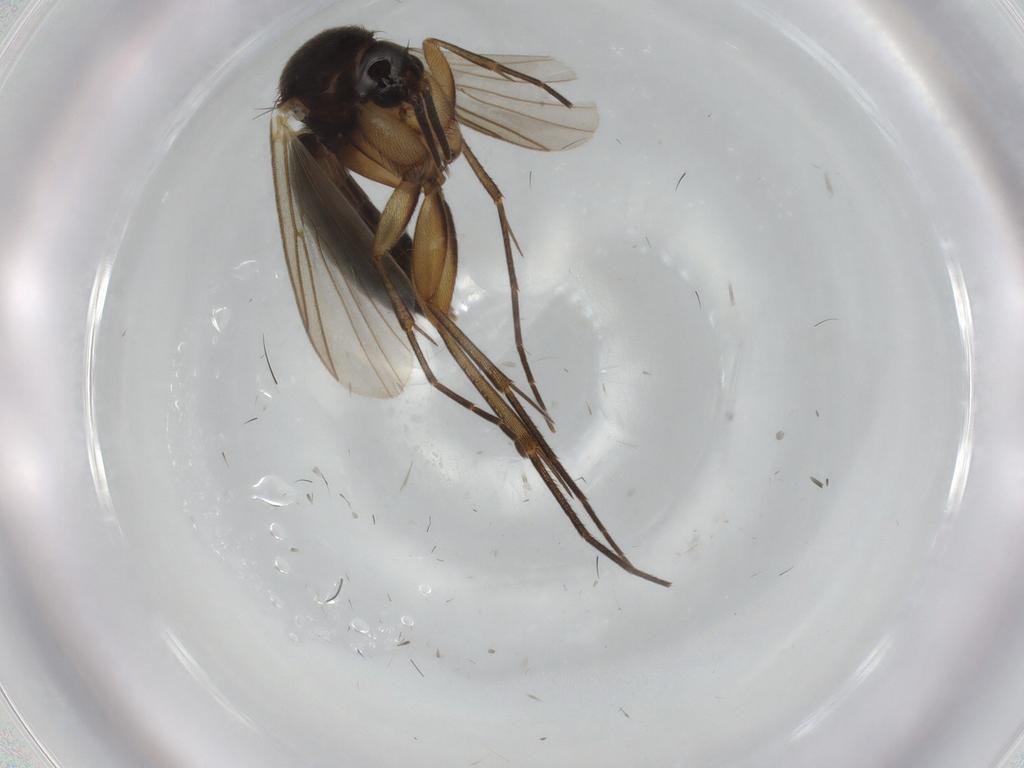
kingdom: Animalia
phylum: Arthropoda
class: Insecta
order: Diptera
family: Mycetophilidae
